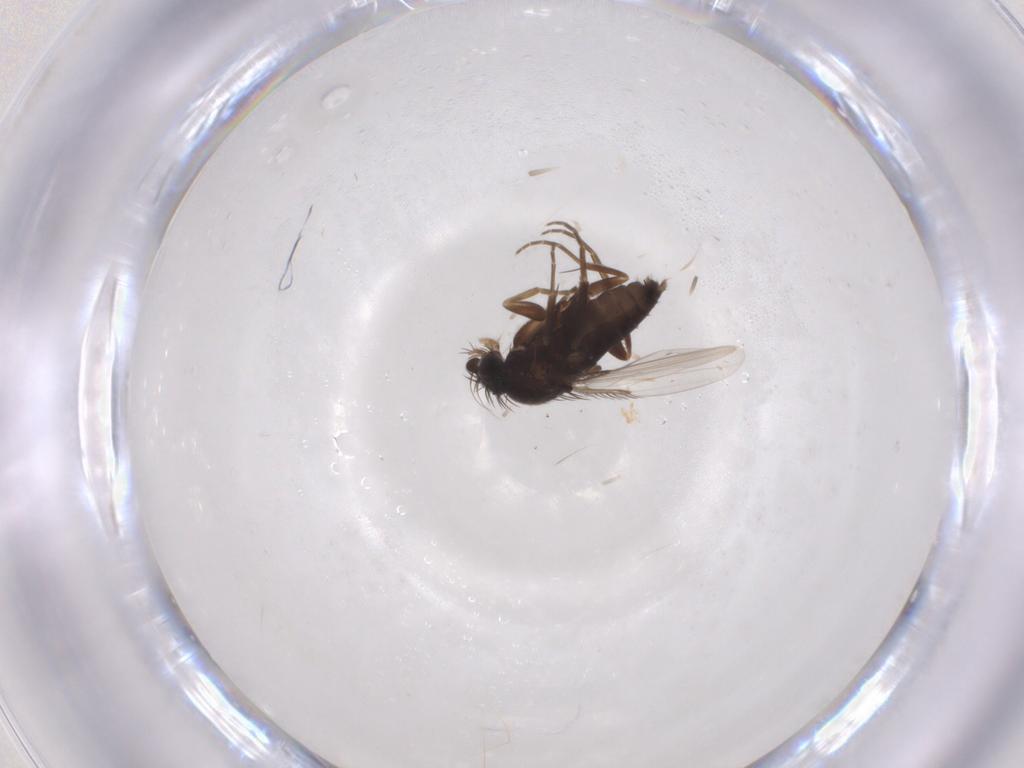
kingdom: Animalia
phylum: Arthropoda
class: Insecta
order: Diptera
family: Phoridae
